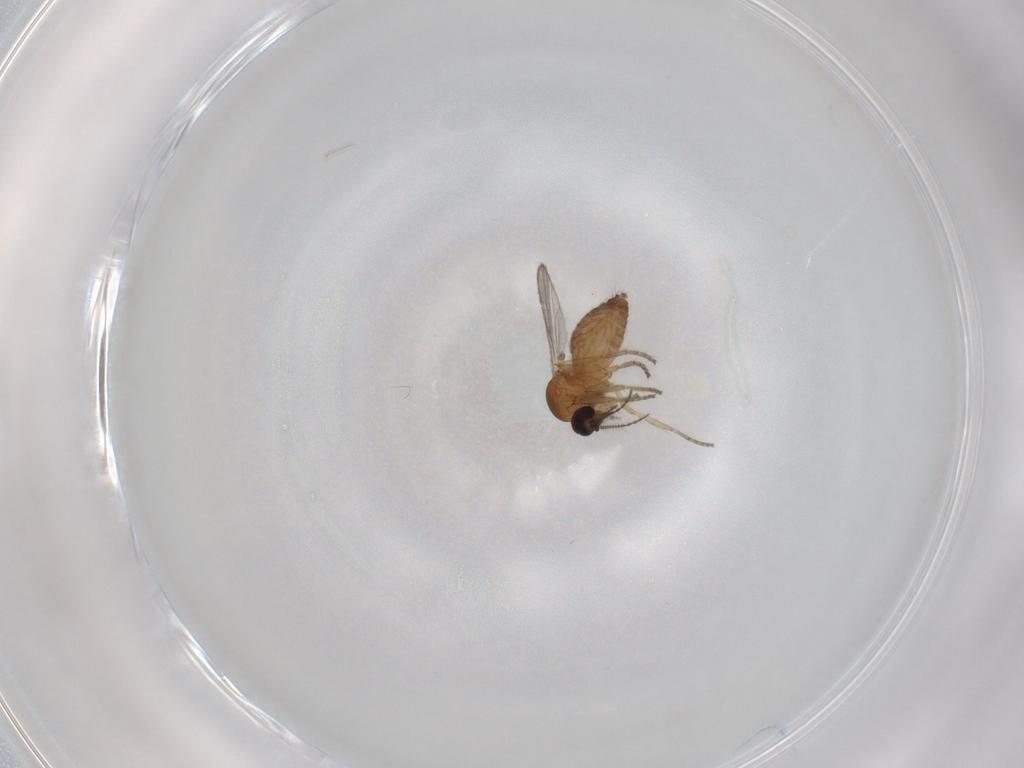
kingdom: Animalia
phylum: Arthropoda
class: Insecta
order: Diptera
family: Ceratopogonidae
